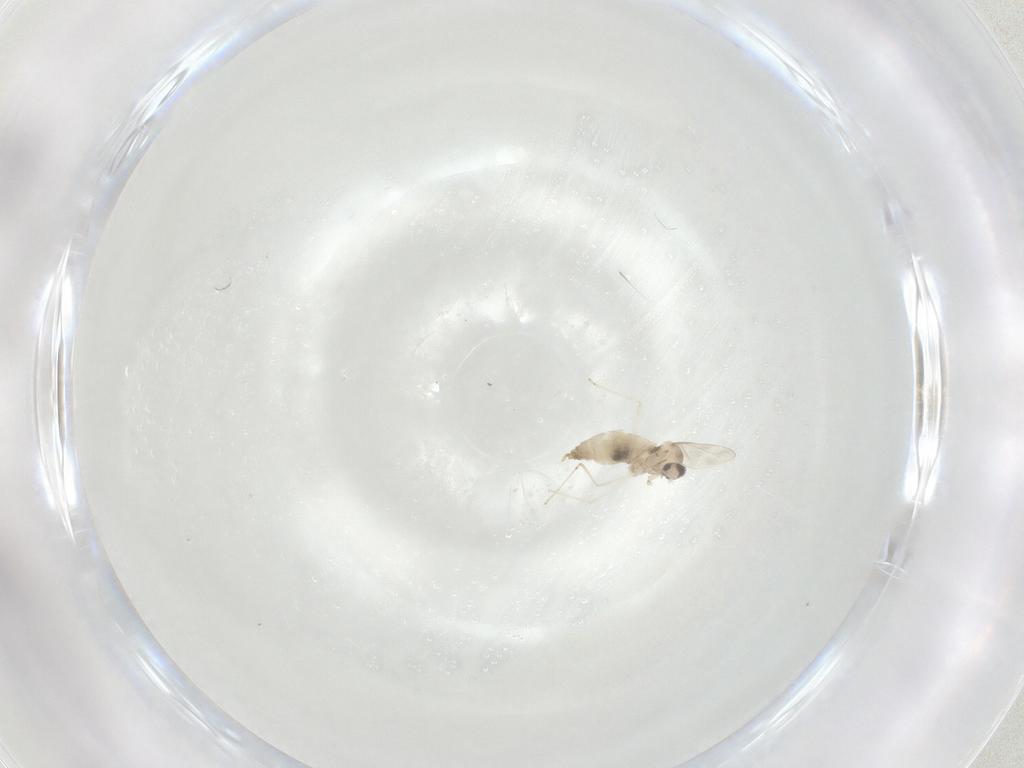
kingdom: Animalia
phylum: Arthropoda
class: Insecta
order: Diptera
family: Cecidomyiidae
